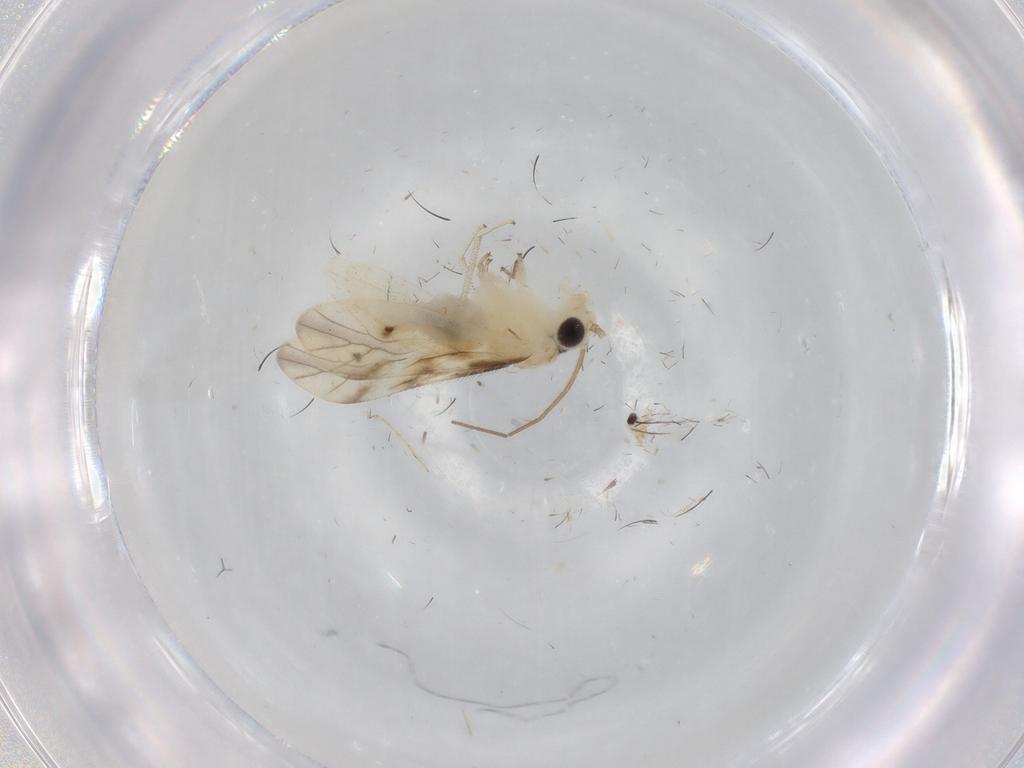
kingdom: Animalia
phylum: Arthropoda
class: Insecta
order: Psocodea
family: Caeciliusidae
